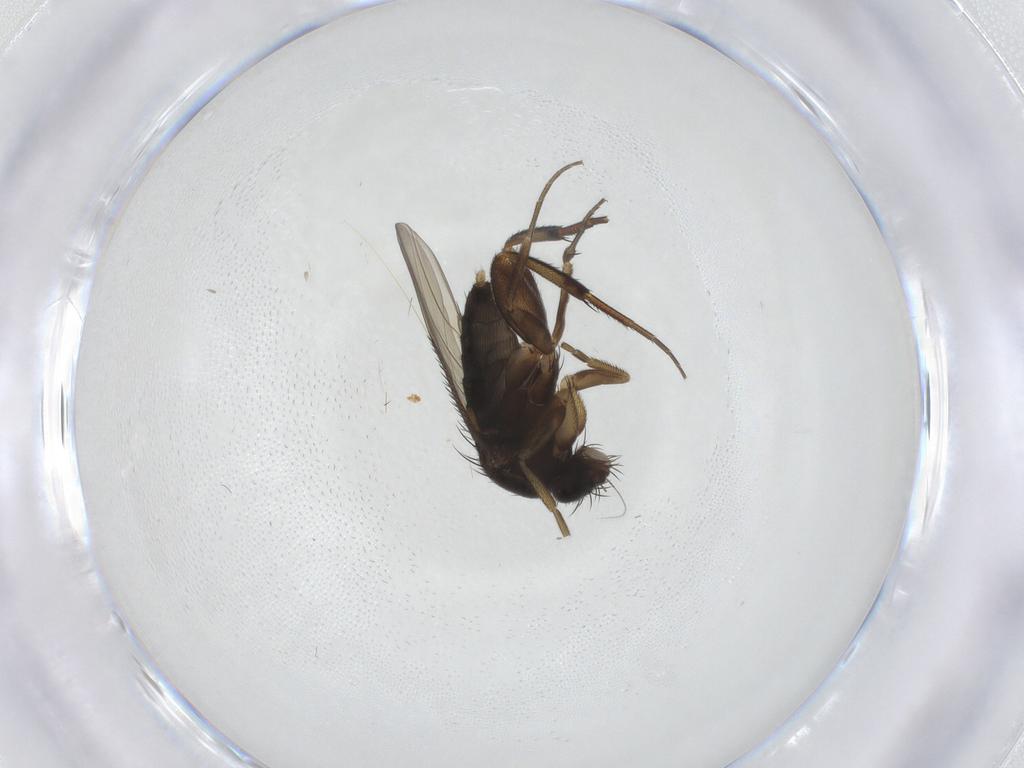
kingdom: Animalia
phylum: Arthropoda
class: Insecta
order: Diptera
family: Phoridae
